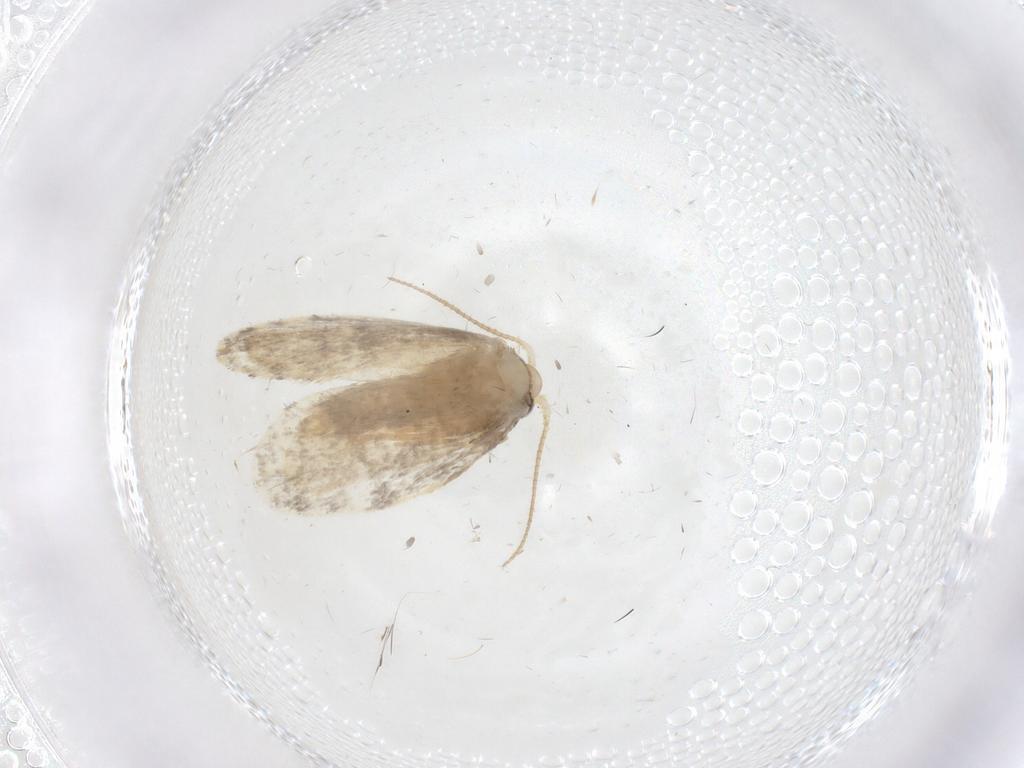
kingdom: Animalia
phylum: Arthropoda
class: Insecta
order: Lepidoptera
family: Psychidae
